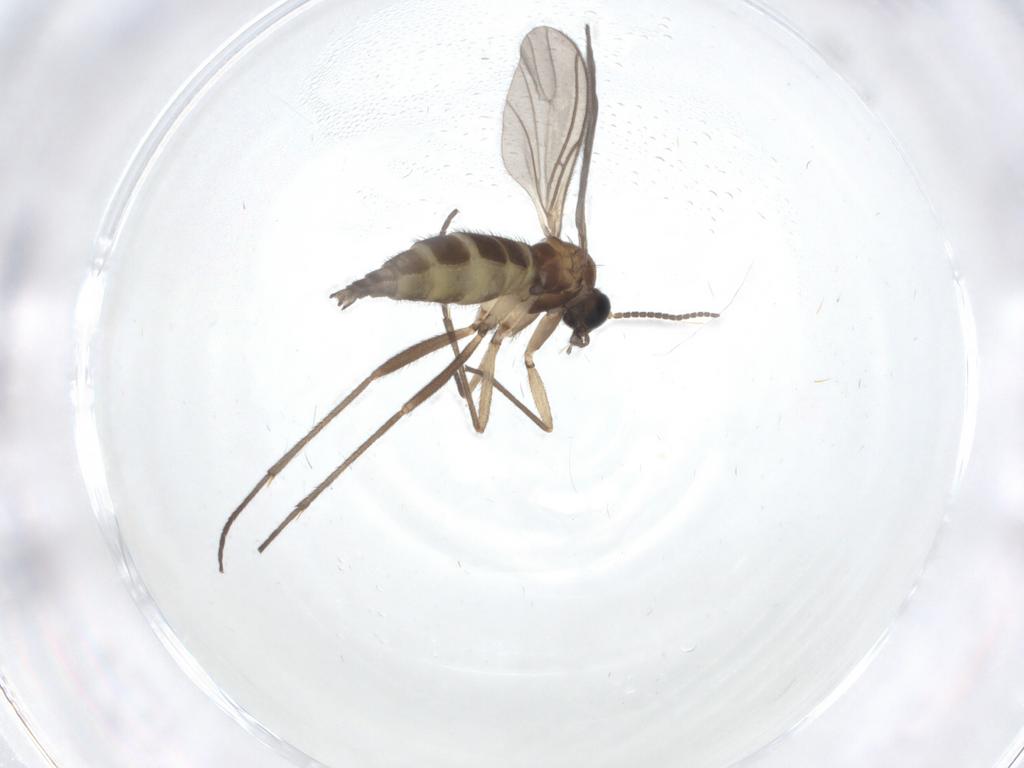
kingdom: Animalia
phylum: Arthropoda
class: Insecta
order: Diptera
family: Sciaridae
